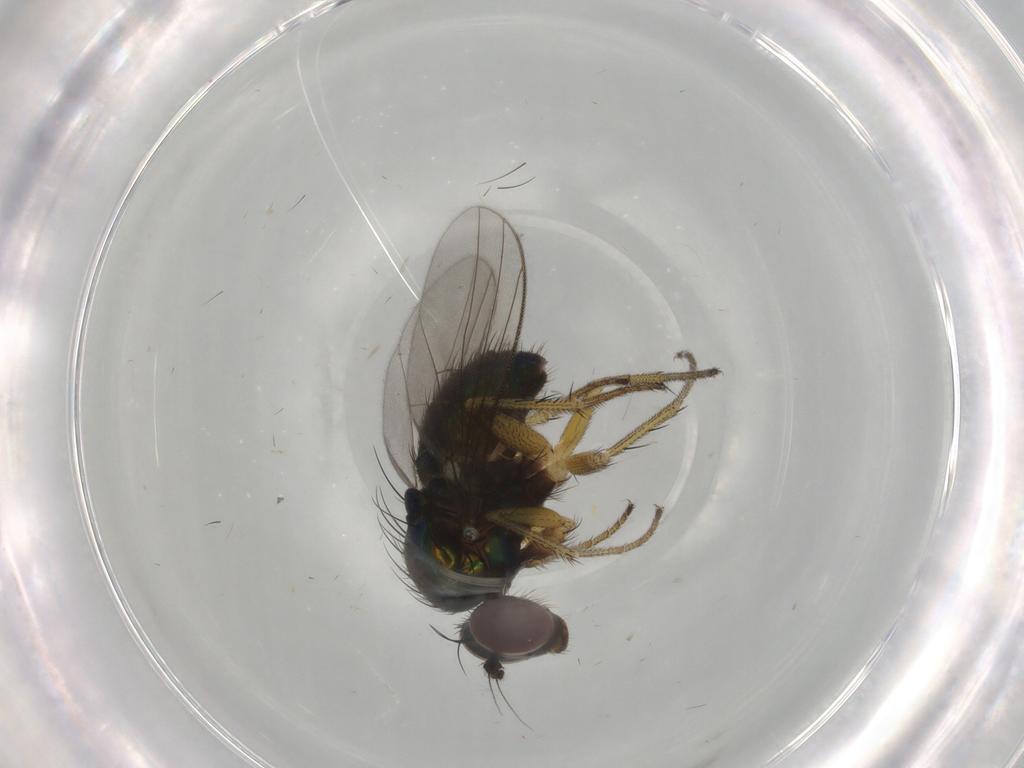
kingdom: Animalia
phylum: Arthropoda
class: Insecta
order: Diptera
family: Dolichopodidae
